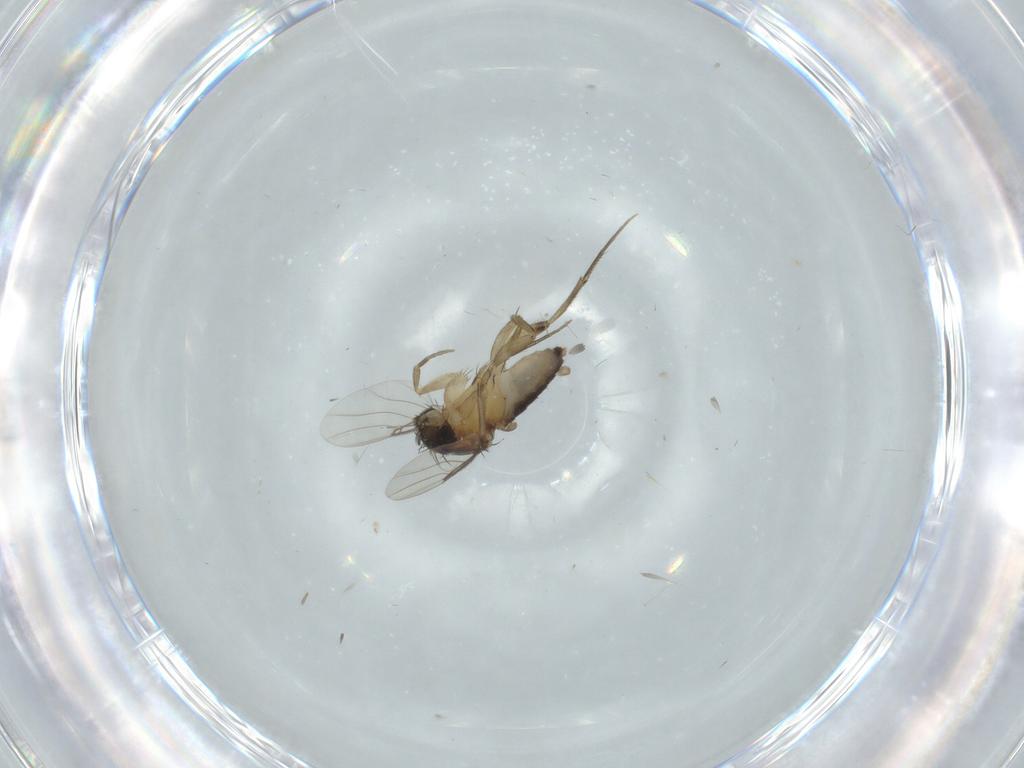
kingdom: Animalia
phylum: Arthropoda
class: Insecta
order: Diptera
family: Phoridae
